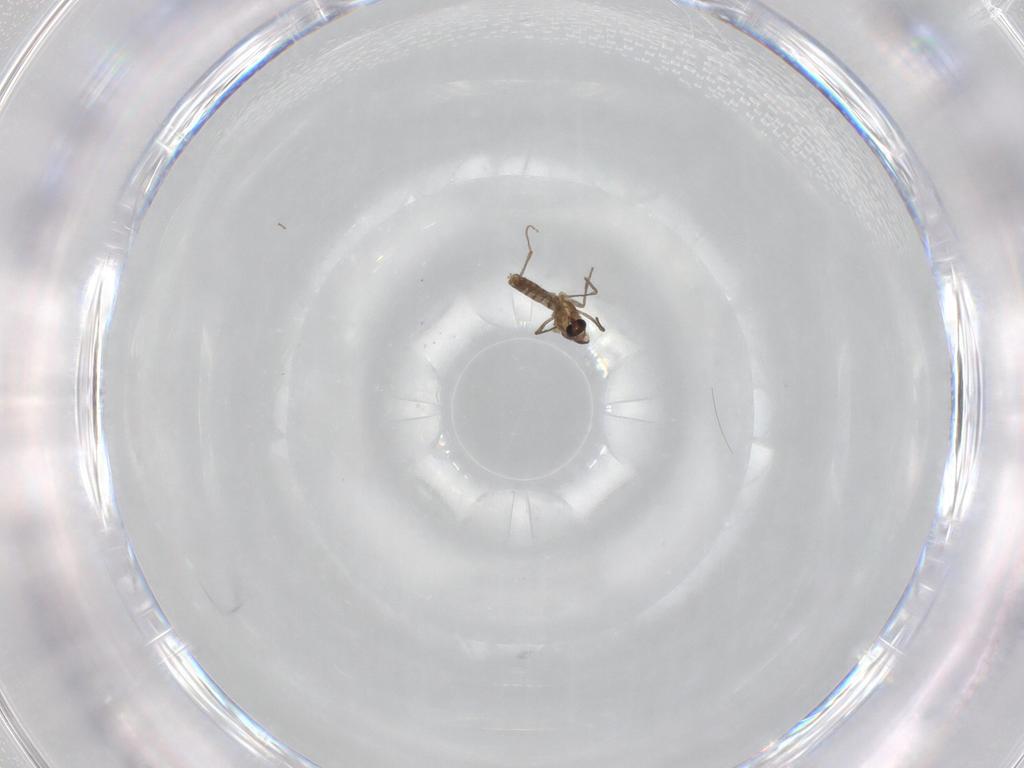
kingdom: Animalia
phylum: Arthropoda
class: Insecta
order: Diptera
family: Chironomidae
